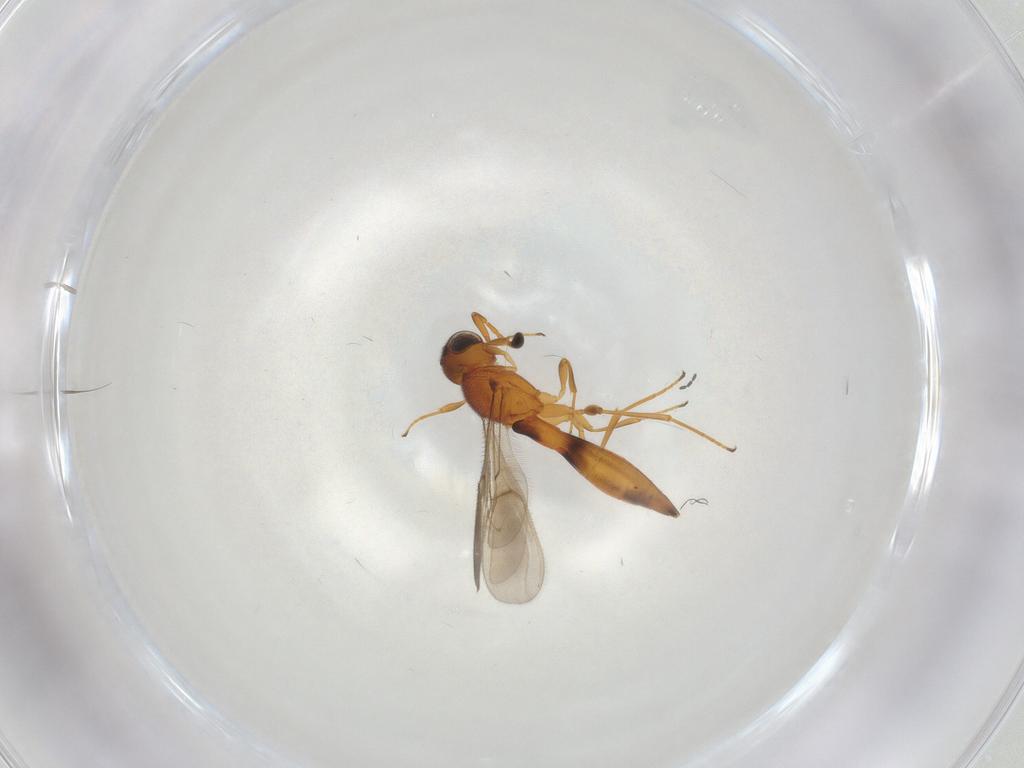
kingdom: Animalia
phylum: Arthropoda
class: Insecta
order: Hymenoptera
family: Scelionidae
